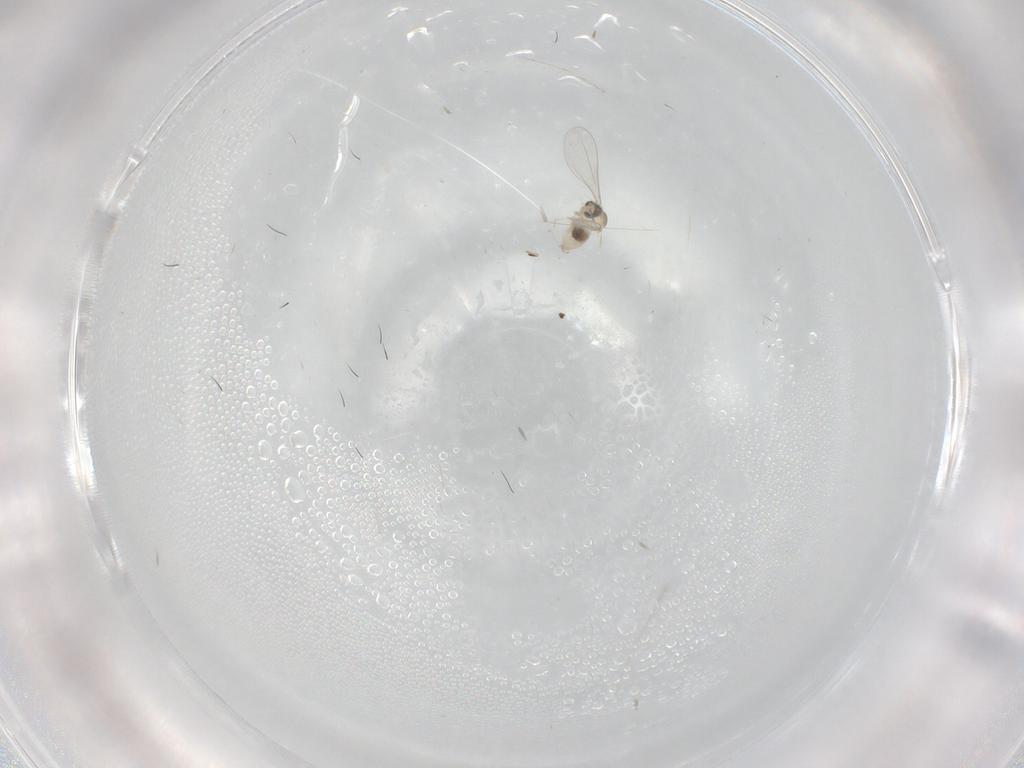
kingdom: Animalia
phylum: Arthropoda
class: Insecta
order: Diptera
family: Cecidomyiidae
